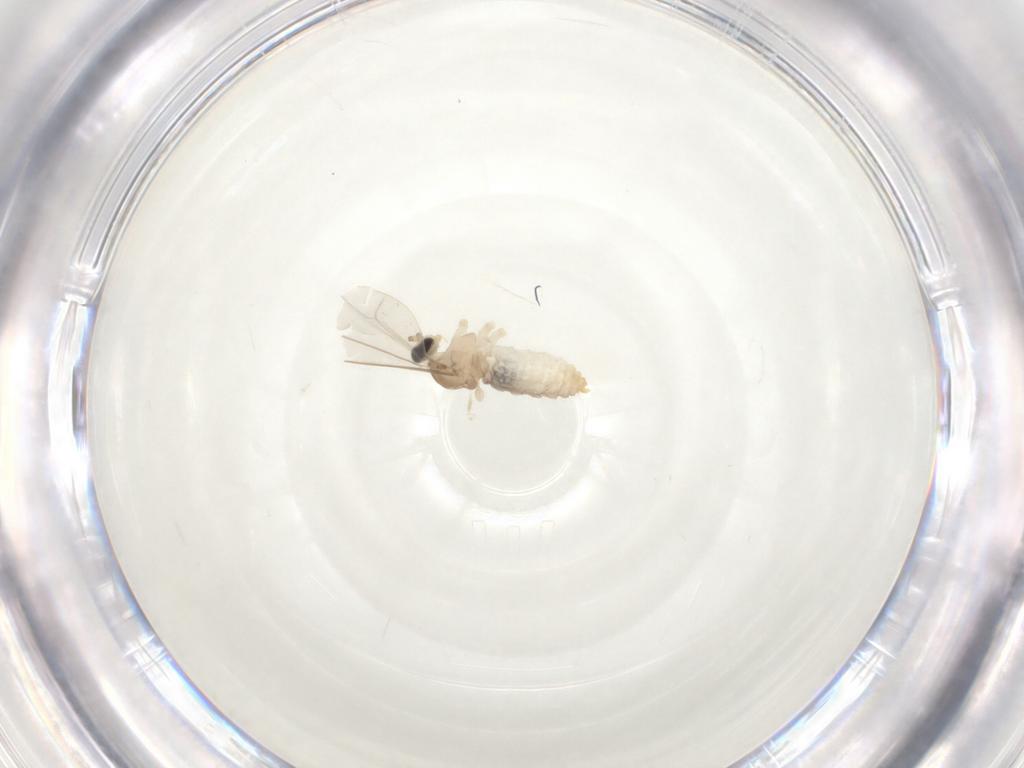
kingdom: Animalia
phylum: Arthropoda
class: Insecta
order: Diptera
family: Cecidomyiidae
